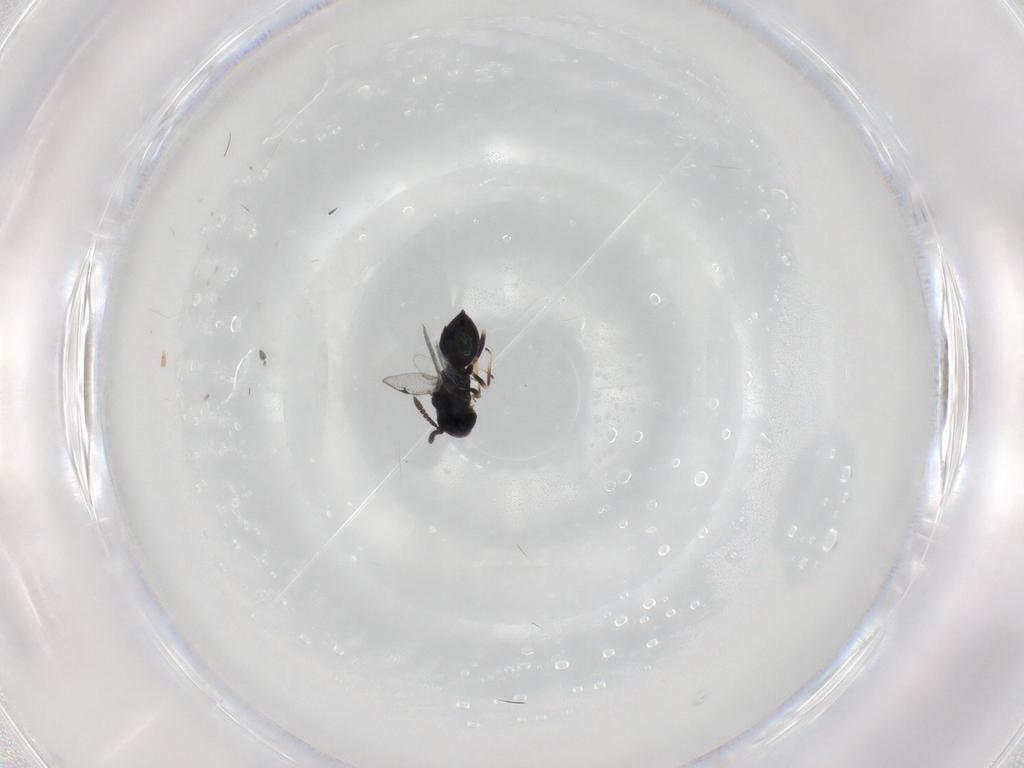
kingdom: Animalia
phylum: Arthropoda
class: Insecta
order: Hymenoptera
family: Pteromalidae
